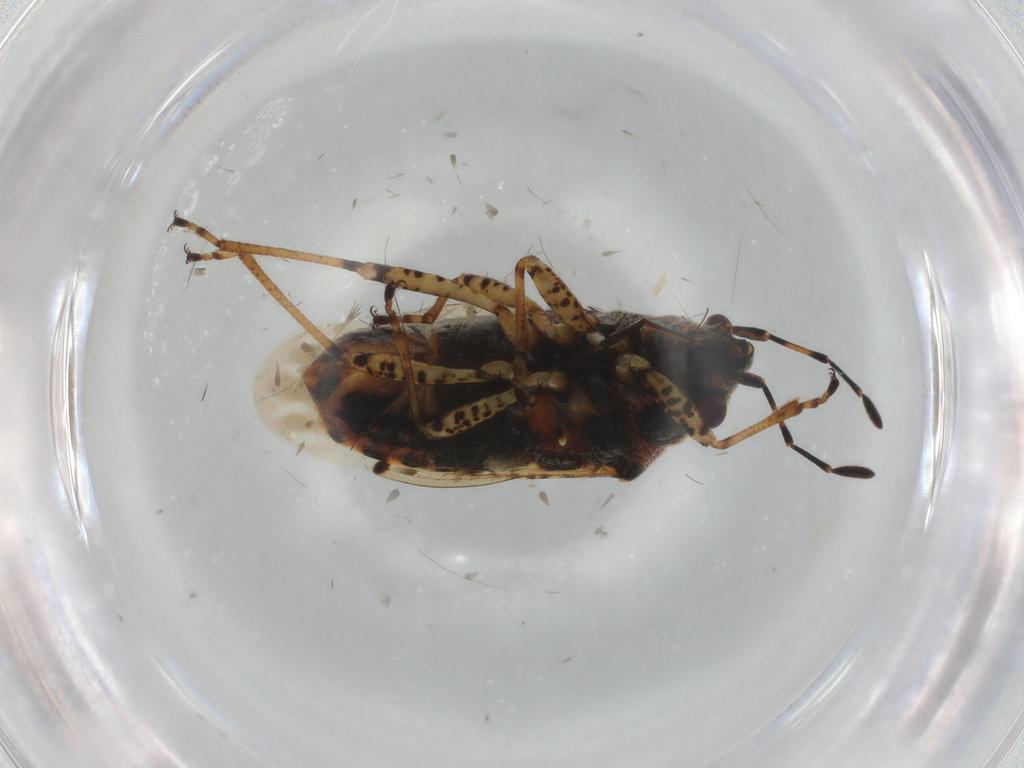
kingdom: Animalia
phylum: Arthropoda
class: Insecta
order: Hemiptera
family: Lygaeidae
